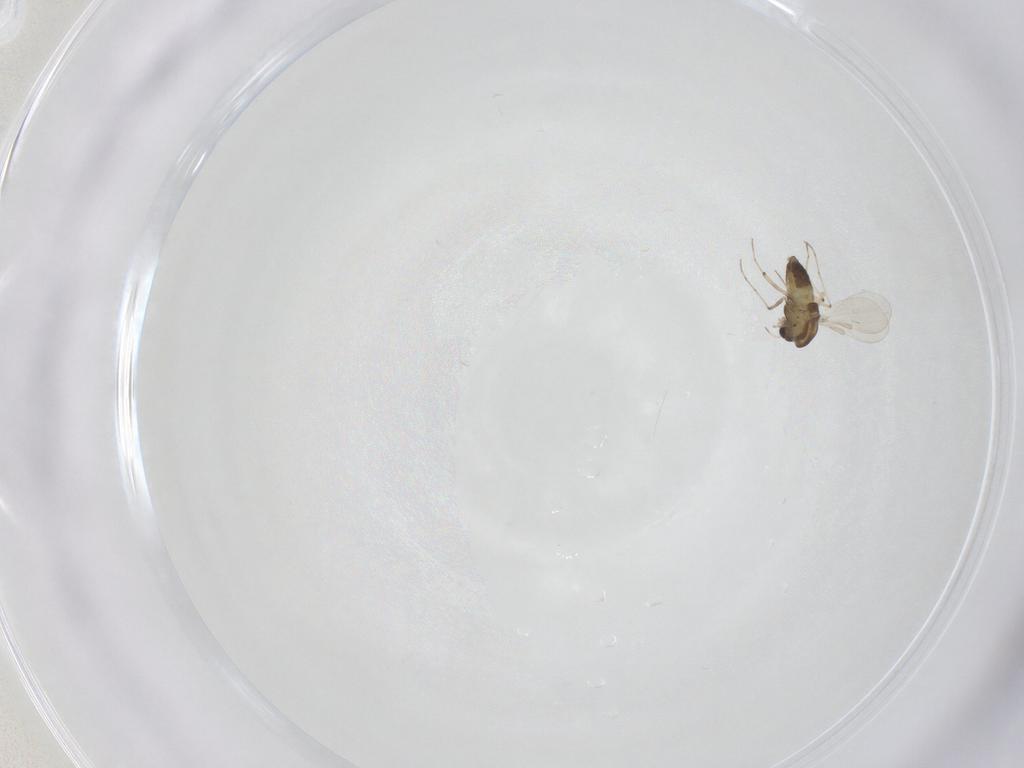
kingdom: Animalia
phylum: Arthropoda
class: Insecta
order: Diptera
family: Chironomidae
